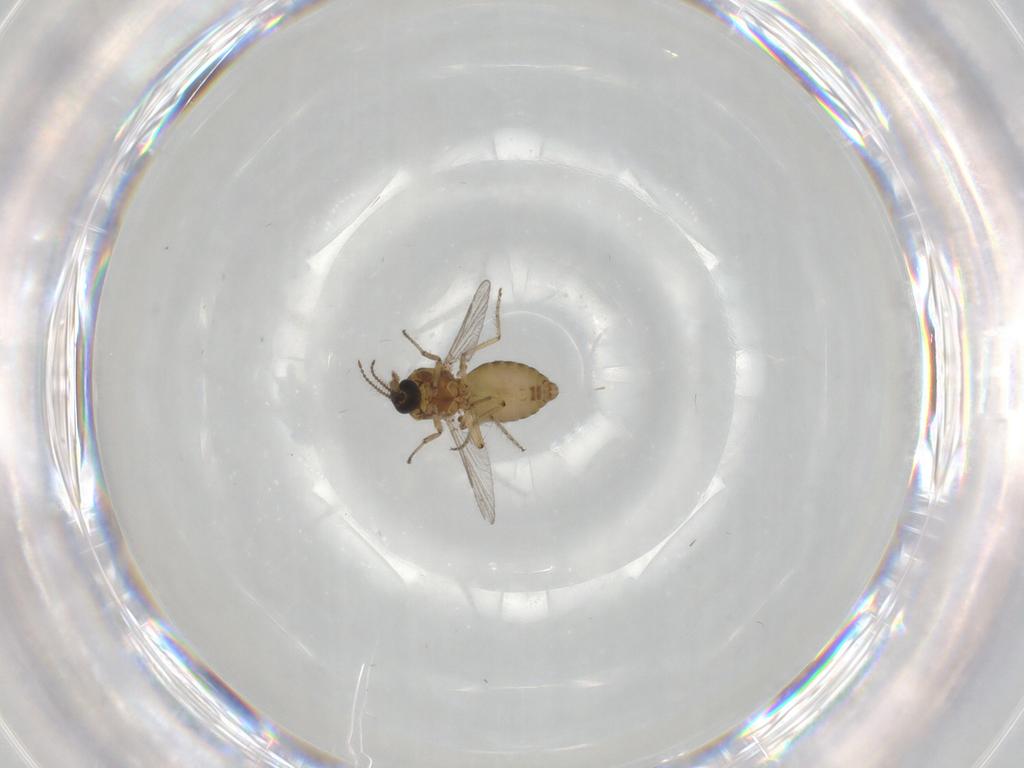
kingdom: Animalia
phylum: Arthropoda
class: Insecta
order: Diptera
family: Ceratopogonidae
